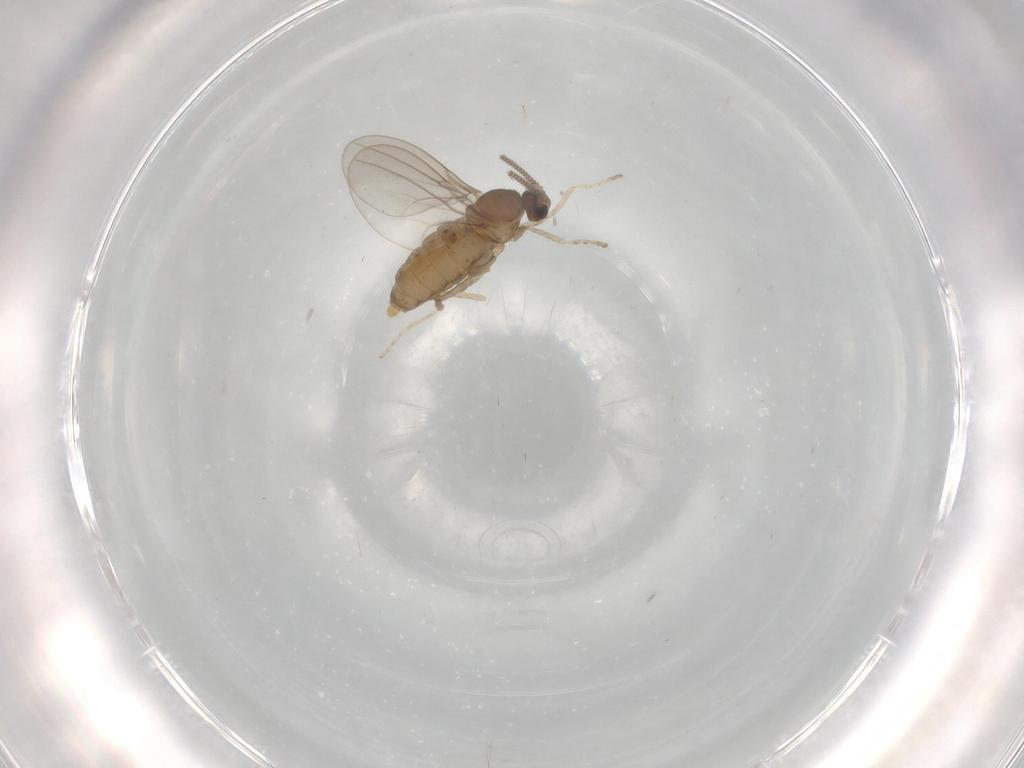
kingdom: Animalia
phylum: Arthropoda
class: Insecta
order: Diptera
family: Cecidomyiidae
